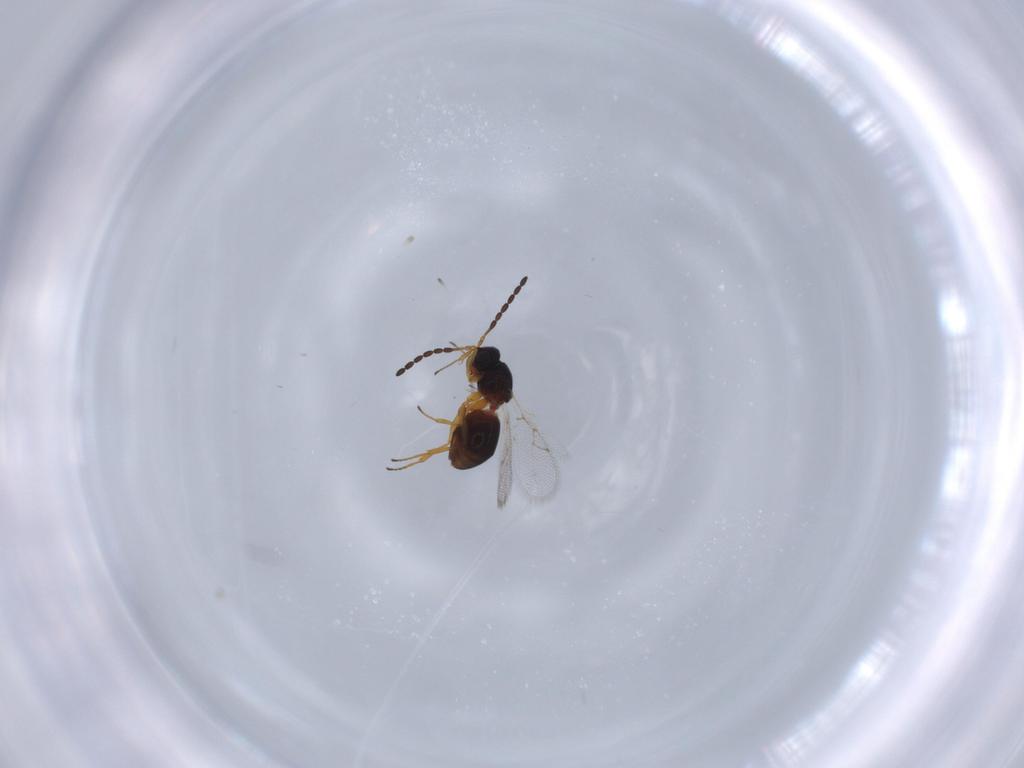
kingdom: Animalia
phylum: Arthropoda
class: Insecta
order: Hymenoptera
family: Figitidae
